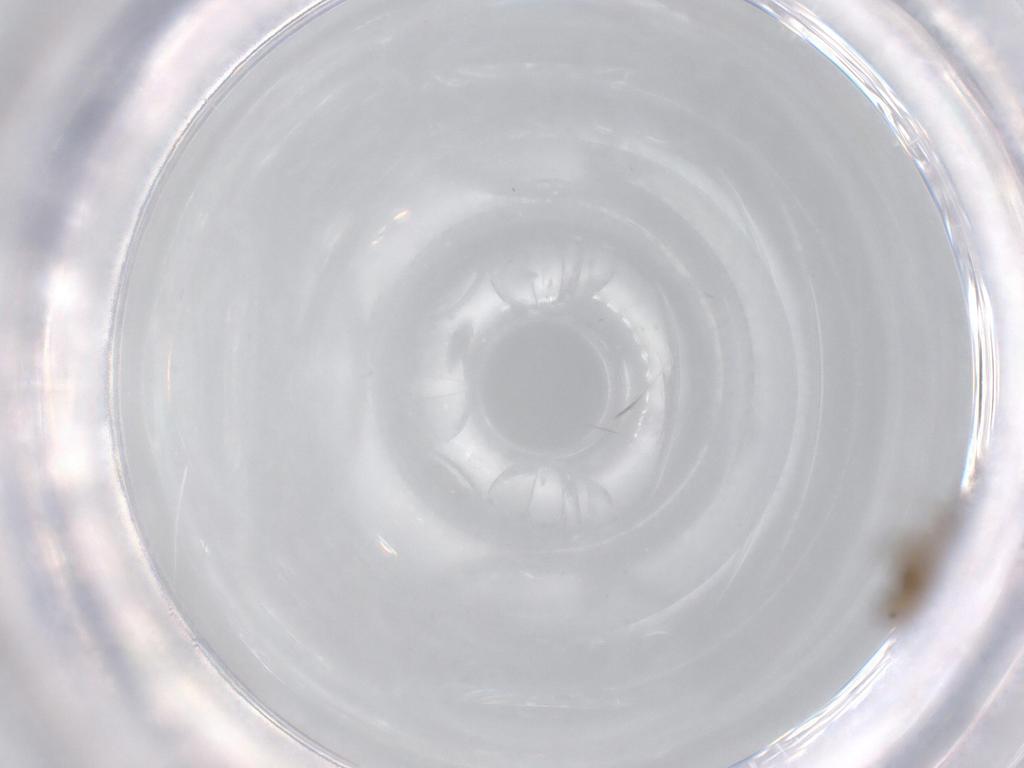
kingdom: Animalia
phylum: Arthropoda
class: Insecta
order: Diptera
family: Chironomidae
